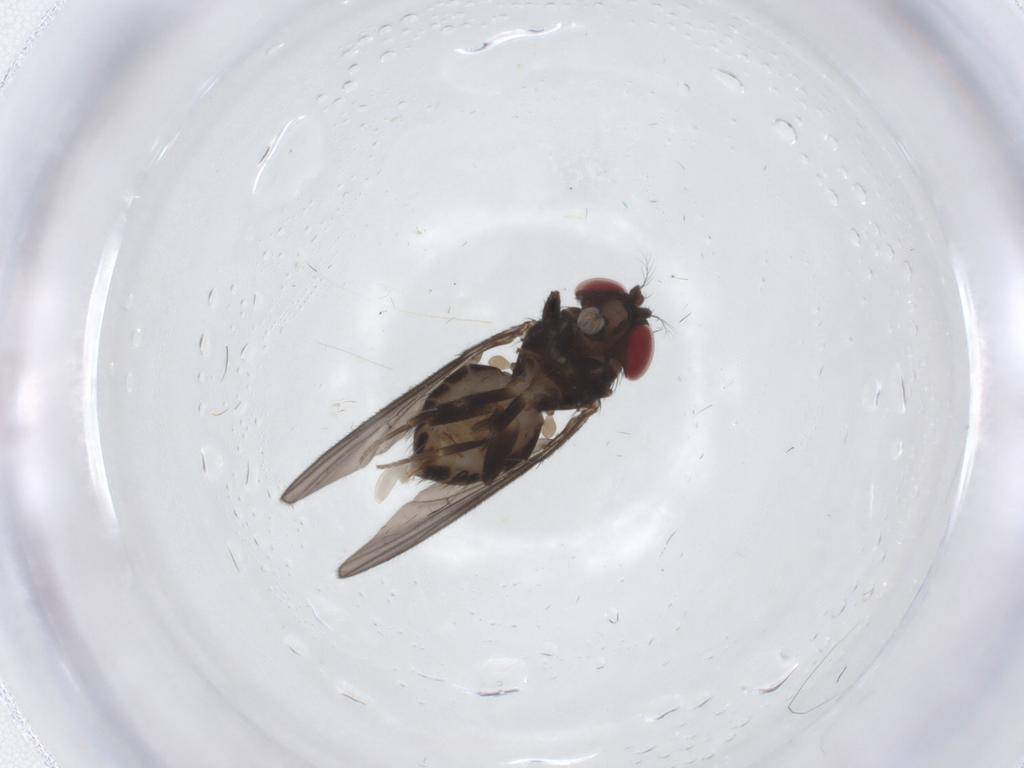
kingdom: Animalia
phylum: Arthropoda
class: Insecta
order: Diptera
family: Drosophilidae
